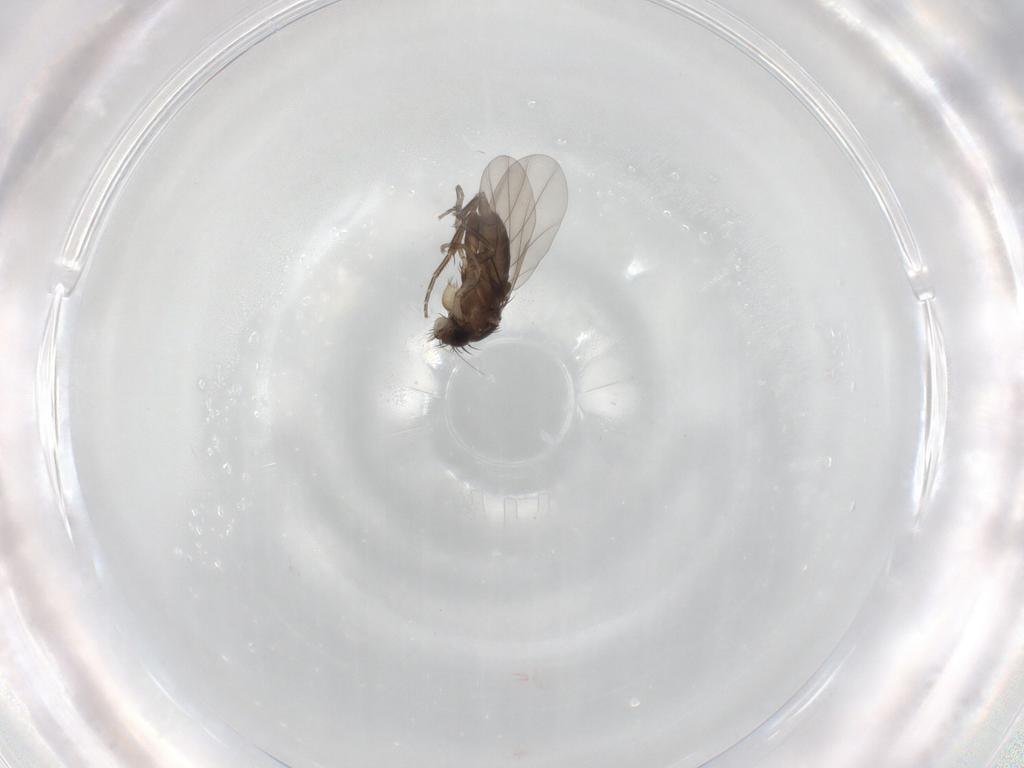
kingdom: Animalia
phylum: Arthropoda
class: Insecta
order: Diptera
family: Phoridae
